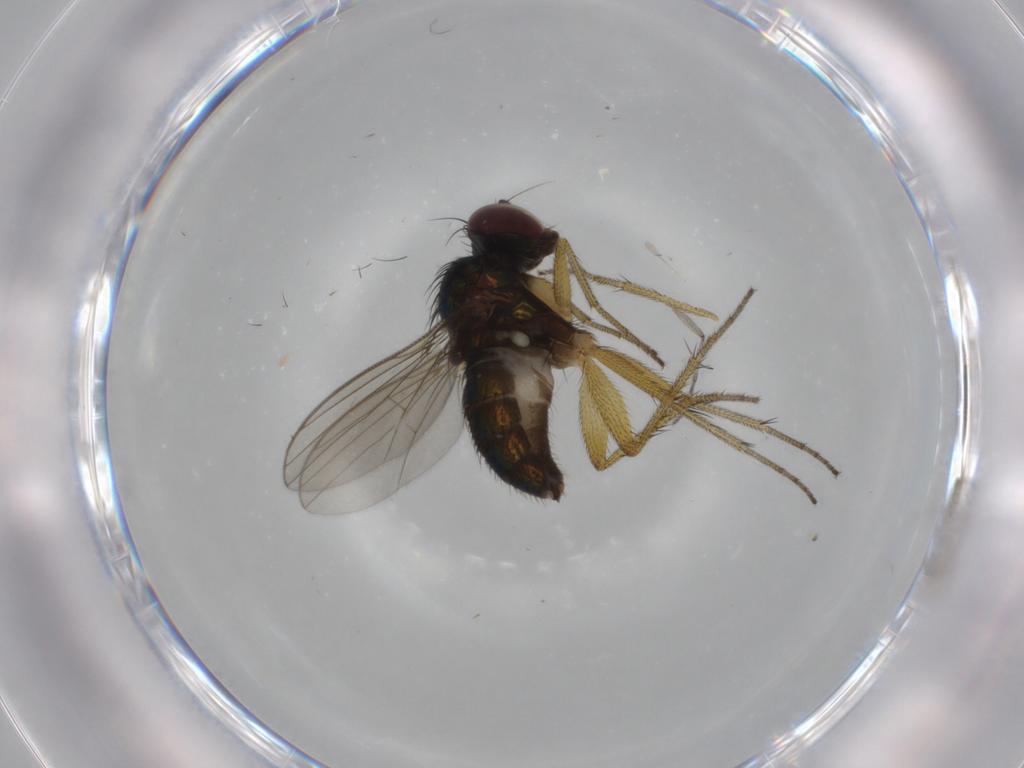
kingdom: Animalia
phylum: Arthropoda
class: Insecta
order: Diptera
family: Dolichopodidae
